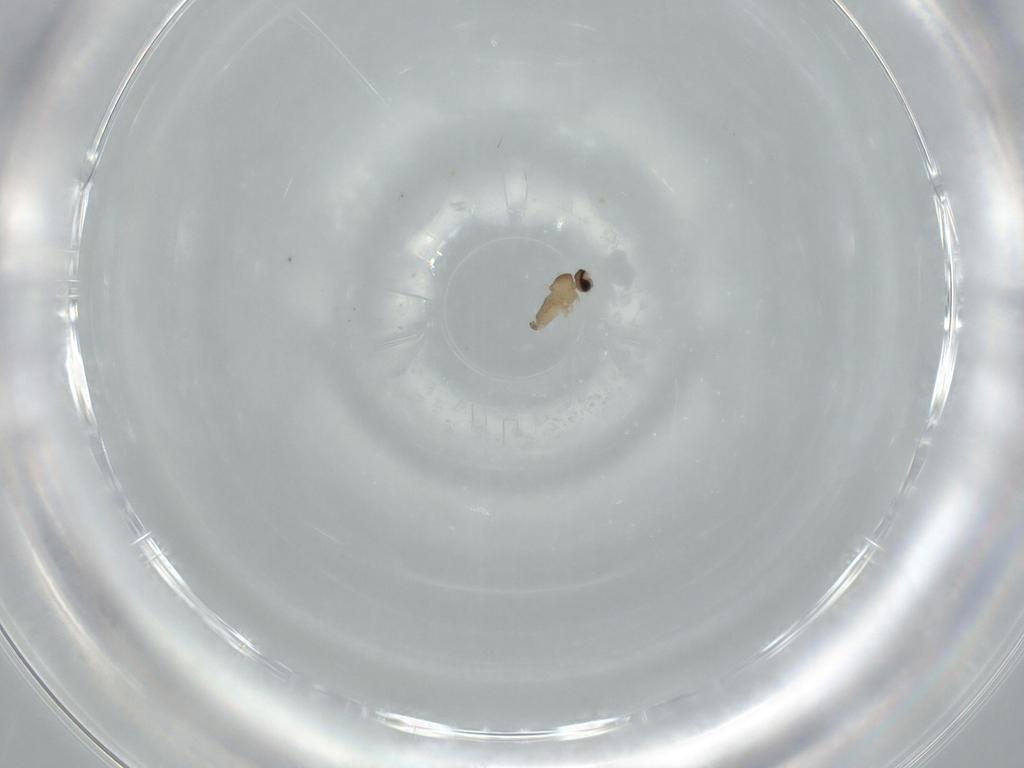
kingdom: Animalia
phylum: Arthropoda
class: Insecta
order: Diptera
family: Cecidomyiidae
